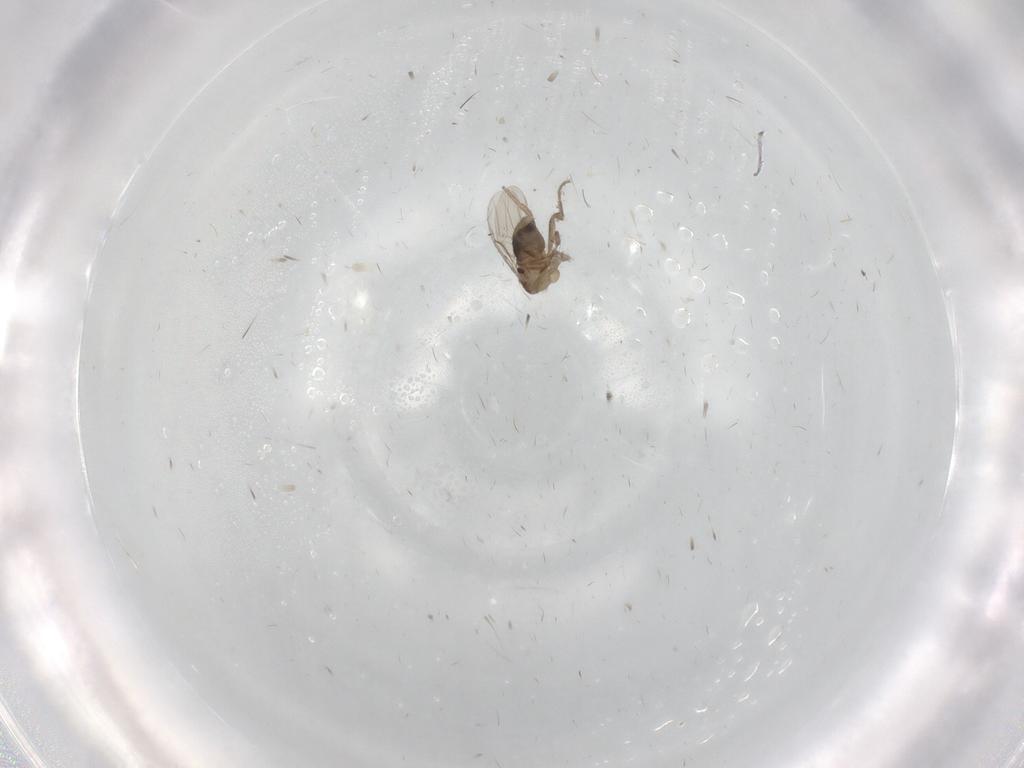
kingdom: Animalia
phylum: Arthropoda
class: Insecta
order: Diptera
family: Phoridae
